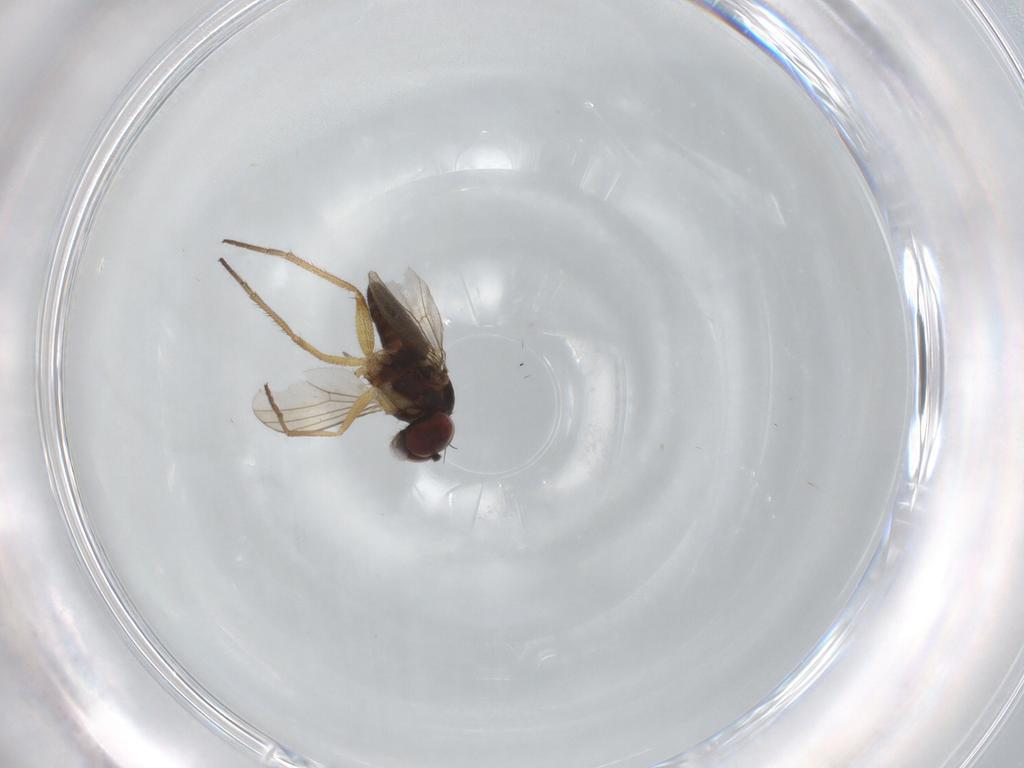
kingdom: Animalia
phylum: Arthropoda
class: Insecta
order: Diptera
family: Dolichopodidae
